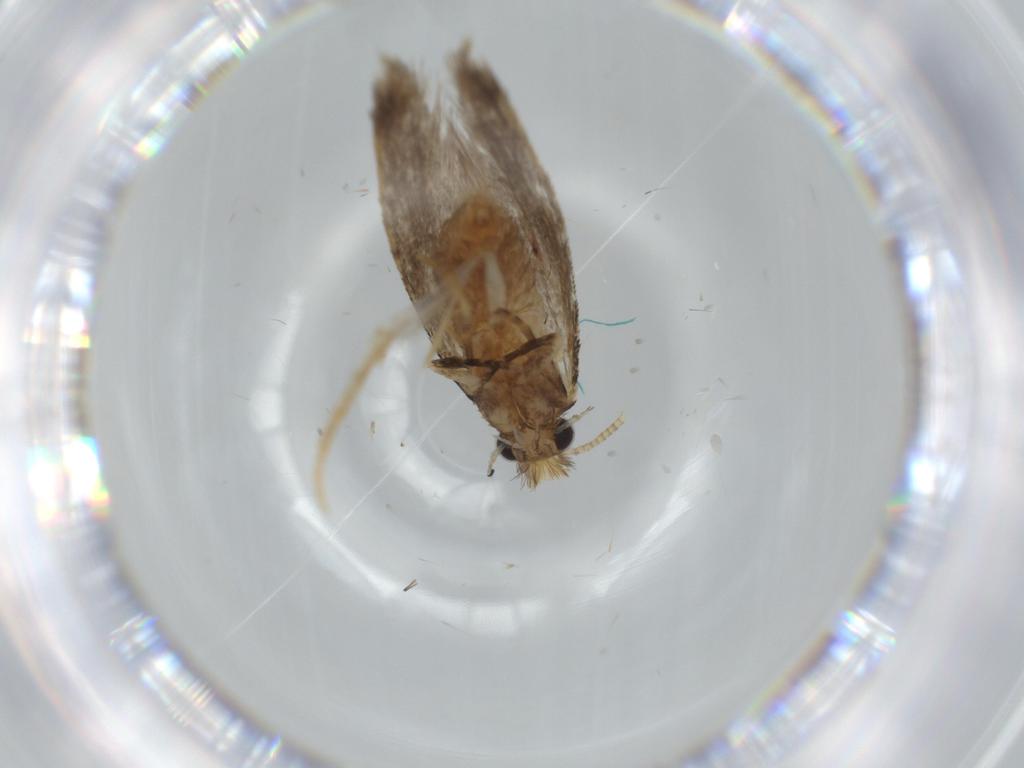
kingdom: Animalia
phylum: Arthropoda
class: Insecta
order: Lepidoptera
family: Tineidae
